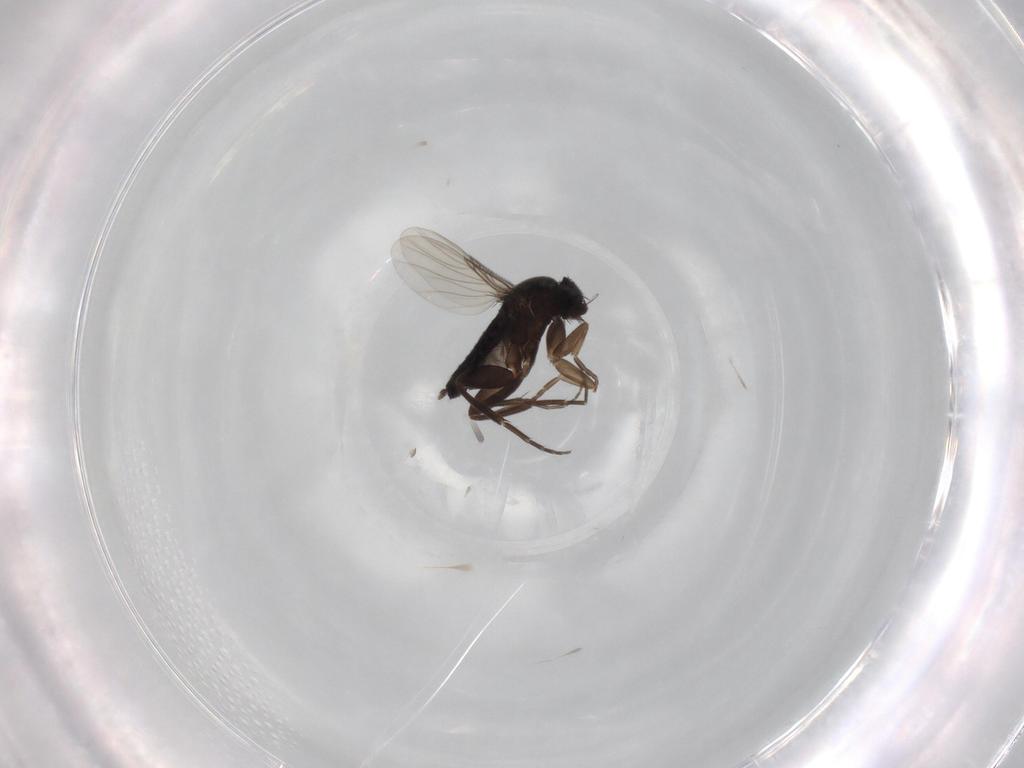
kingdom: Animalia
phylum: Arthropoda
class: Insecta
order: Diptera
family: Phoridae
